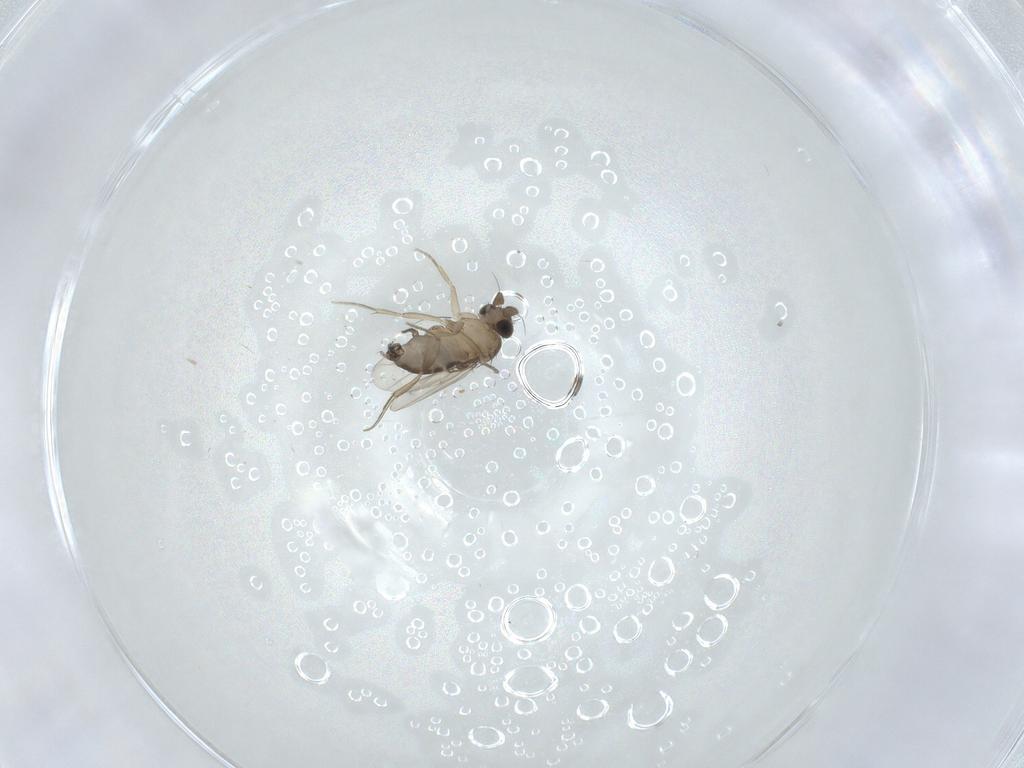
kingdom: Animalia
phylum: Arthropoda
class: Insecta
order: Diptera
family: Phoridae
